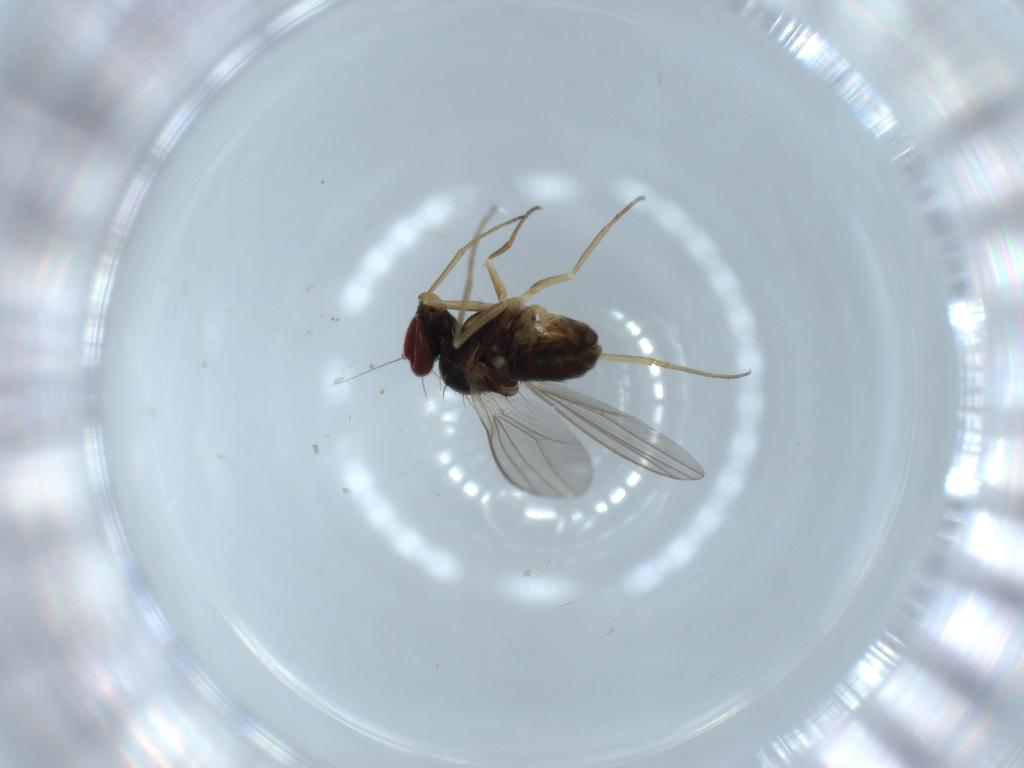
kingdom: Animalia
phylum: Arthropoda
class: Insecta
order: Diptera
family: Dolichopodidae
